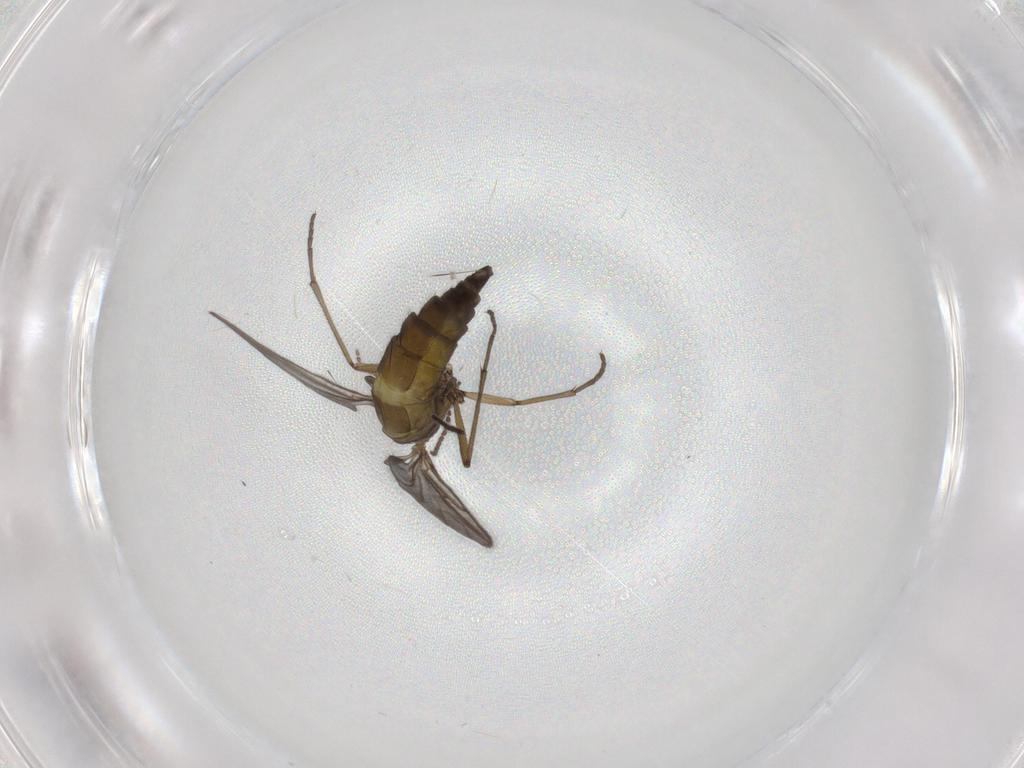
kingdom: Animalia
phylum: Arthropoda
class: Insecta
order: Diptera
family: Sciaridae
